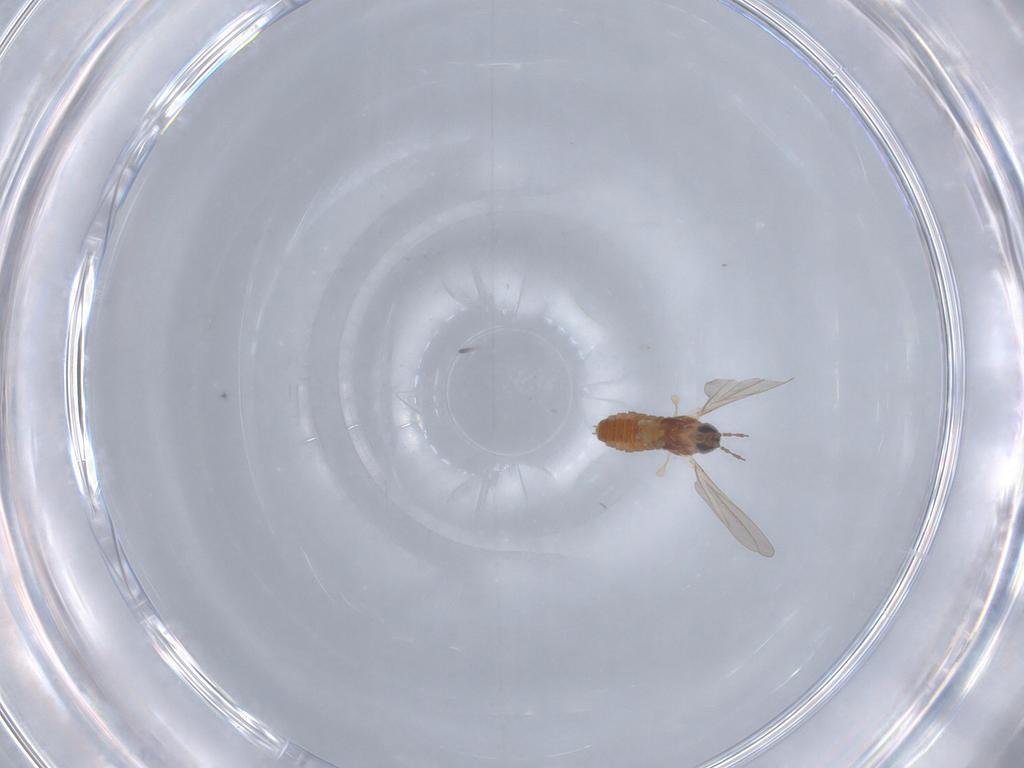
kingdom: Animalia
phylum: Arthropoda
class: Insecta
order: Diptera
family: Cecidomyiidae
